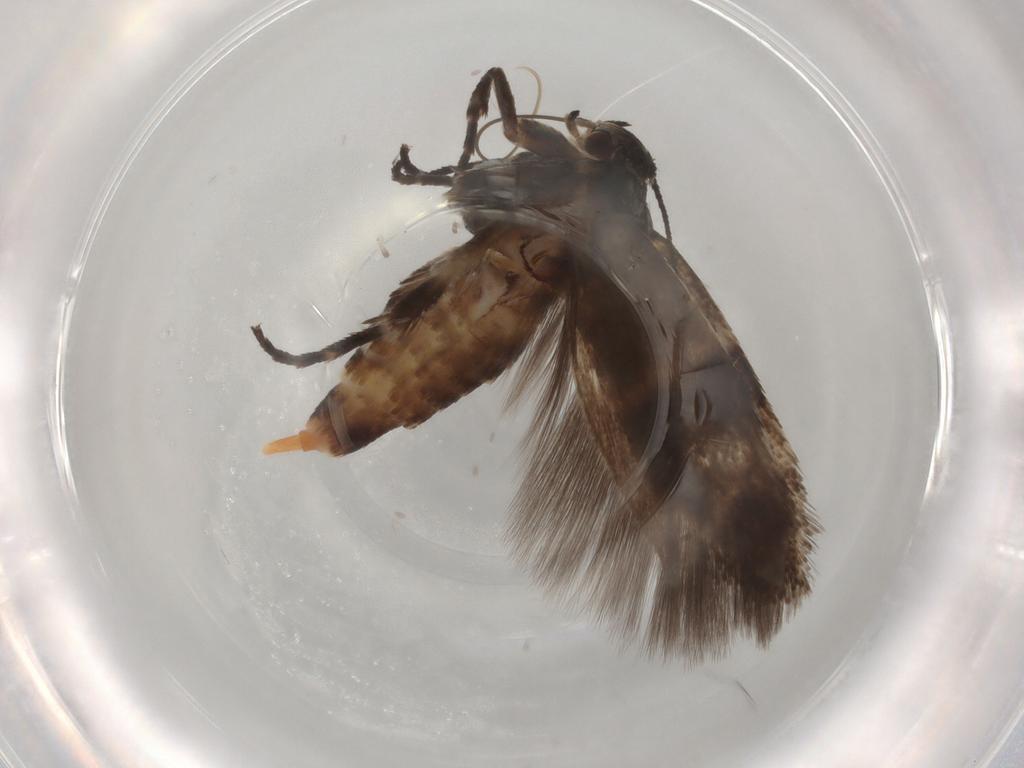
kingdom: Animalia
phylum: Arthropoda
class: Insecta
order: Lepidoptera
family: Scythrididae
